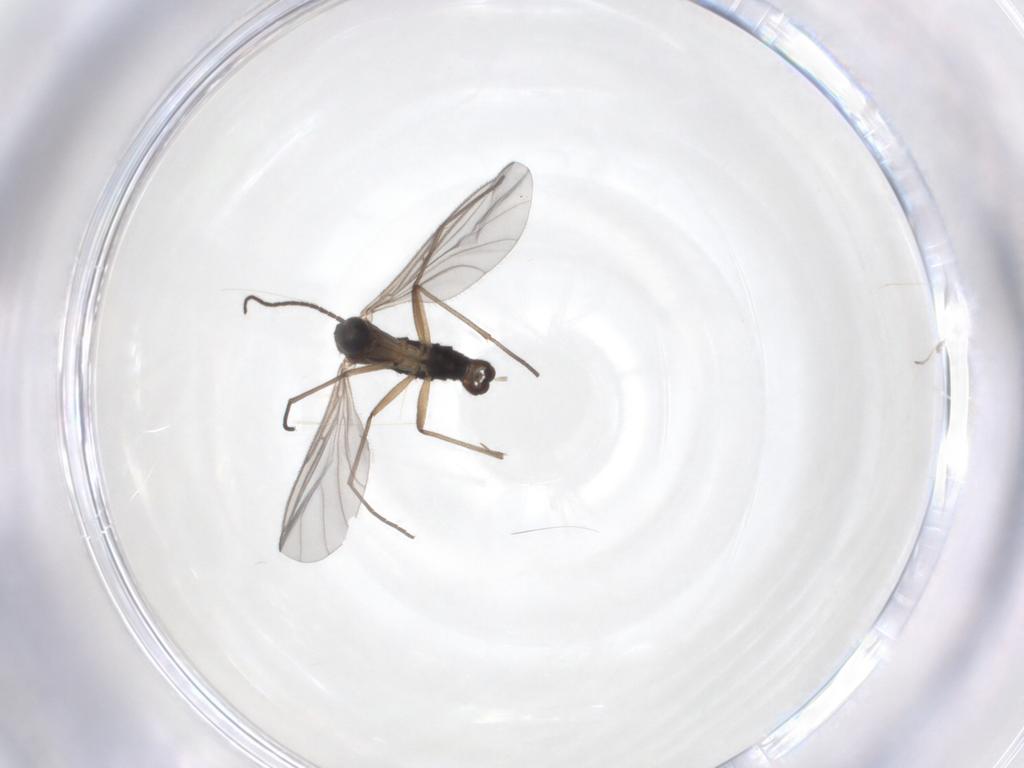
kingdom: Animalia
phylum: Arthropoda
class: Insecta
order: Diptera
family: Sciaridae
